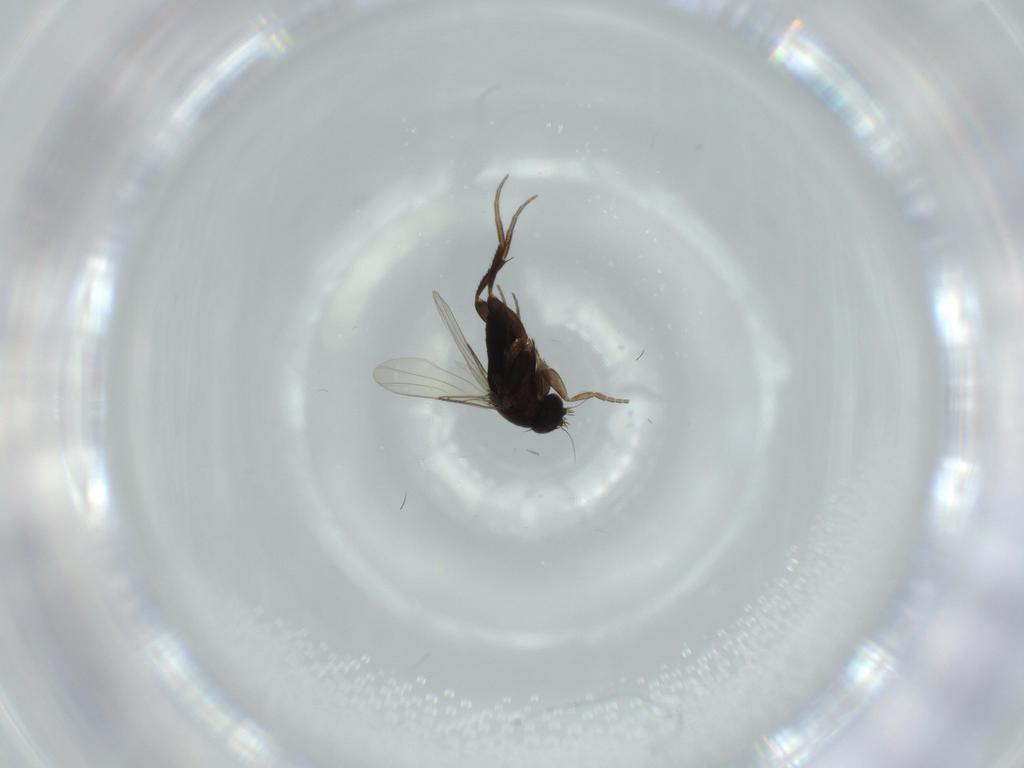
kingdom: Animalia
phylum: Arthropoda
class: Insecta
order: Diptera
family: Phoridae
